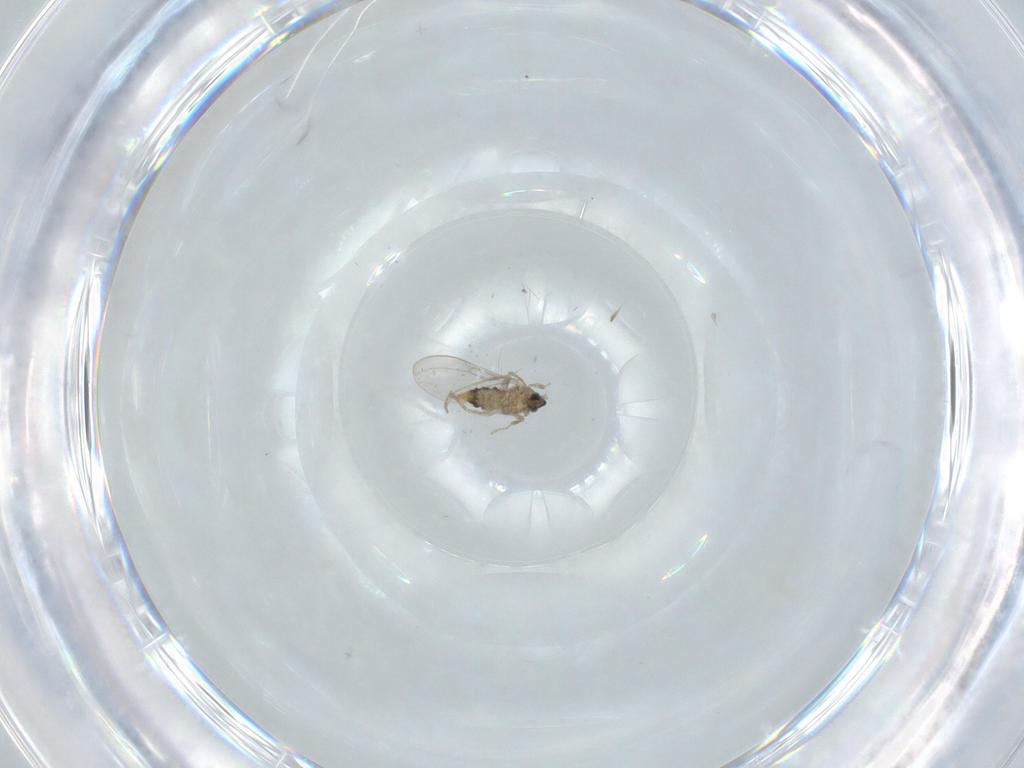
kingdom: Animalia
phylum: Arthropoda
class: Insecta
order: Diptera
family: Cecidomyiidae
